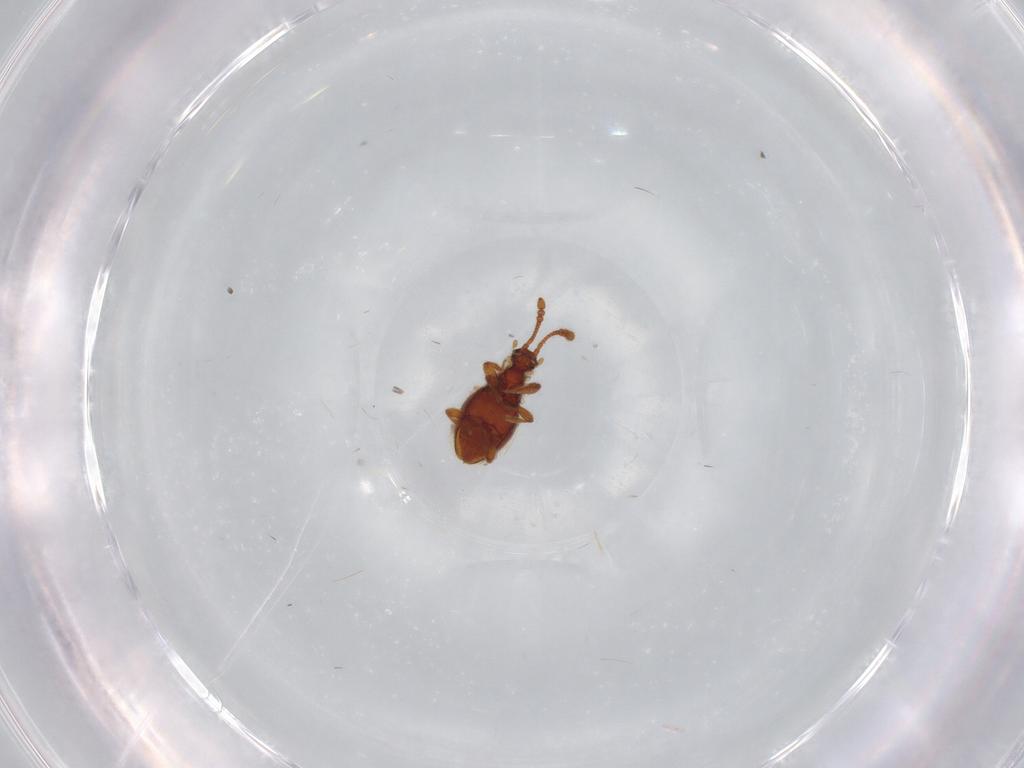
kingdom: Animalia
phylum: Arthropoda
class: Insecta
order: Coleoptera
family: Staphylinidae
